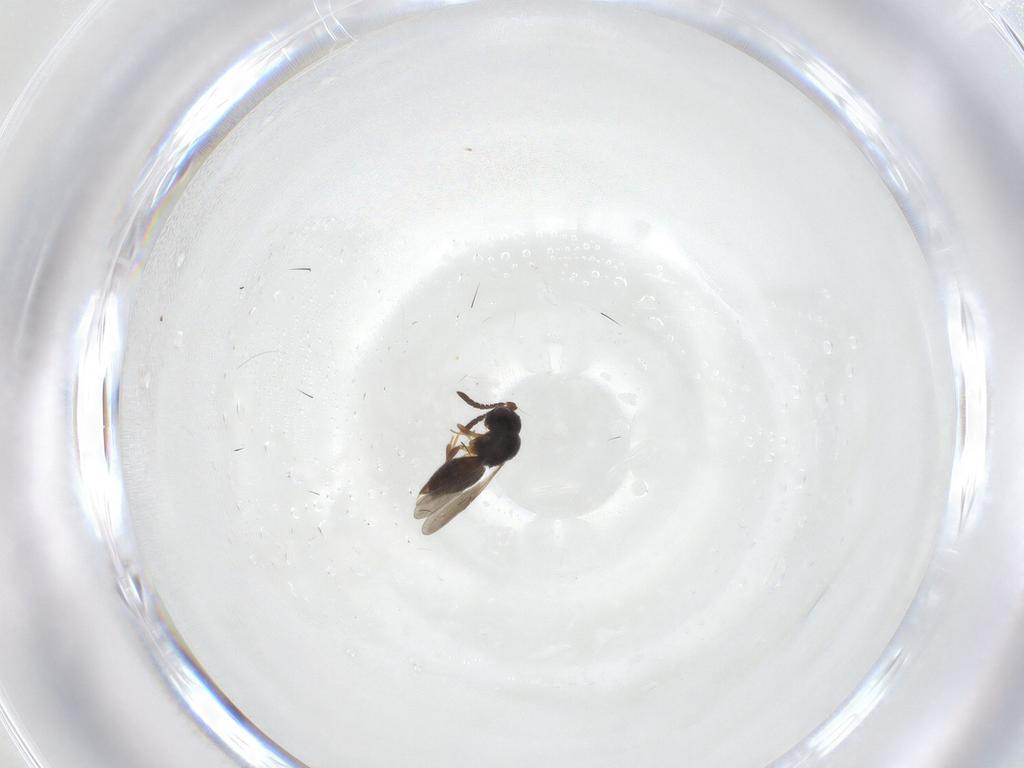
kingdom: Animalia
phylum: Arthropoda
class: Insecta
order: Hymenoptera
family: Ceraphronidae
